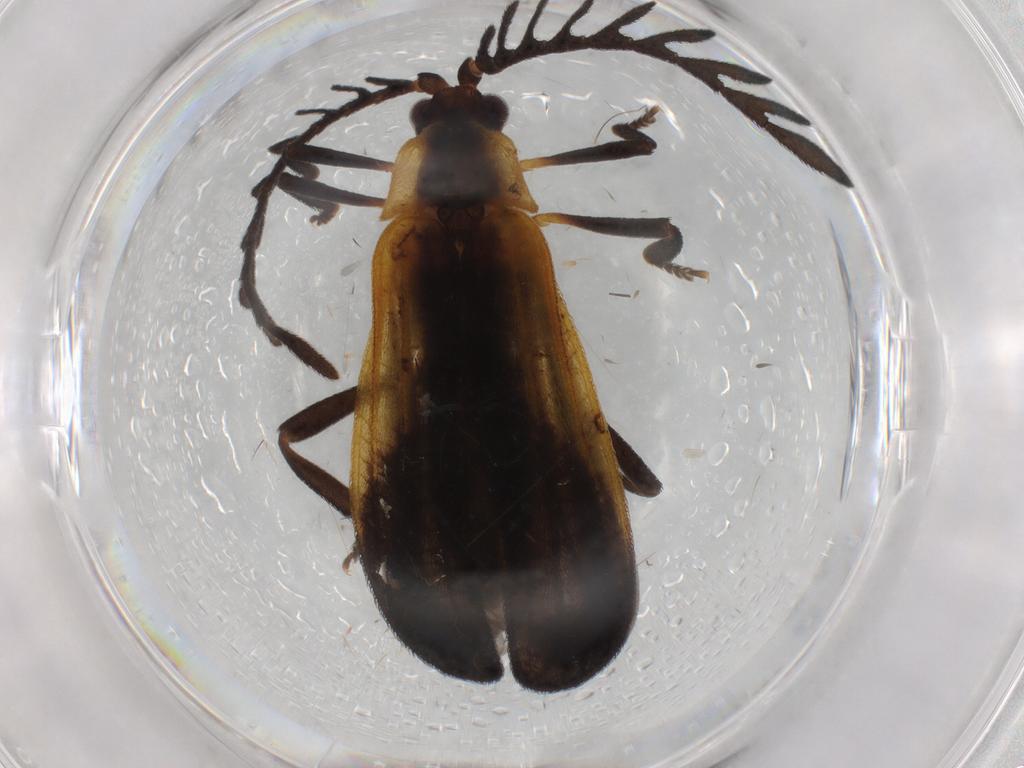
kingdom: Animalia
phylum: Arthropoda
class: Insecta
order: Coleoptera
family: Lycidae
